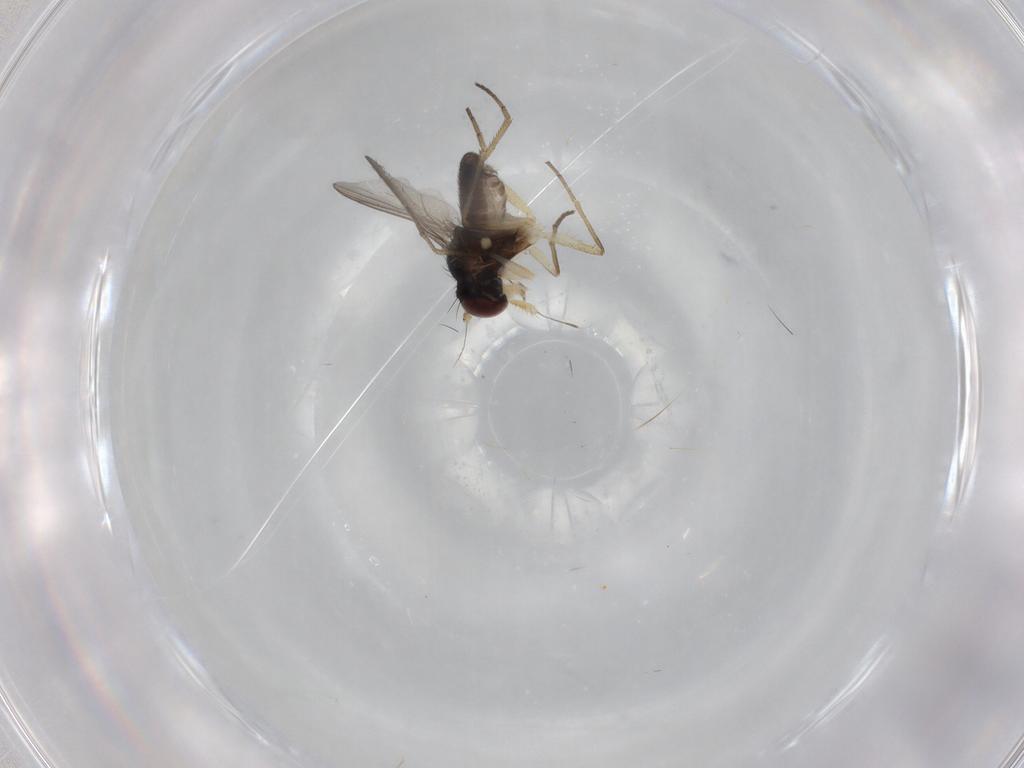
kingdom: Animalia
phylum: Arthropoda
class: Insecta
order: Diptera
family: Dolichopodidae
